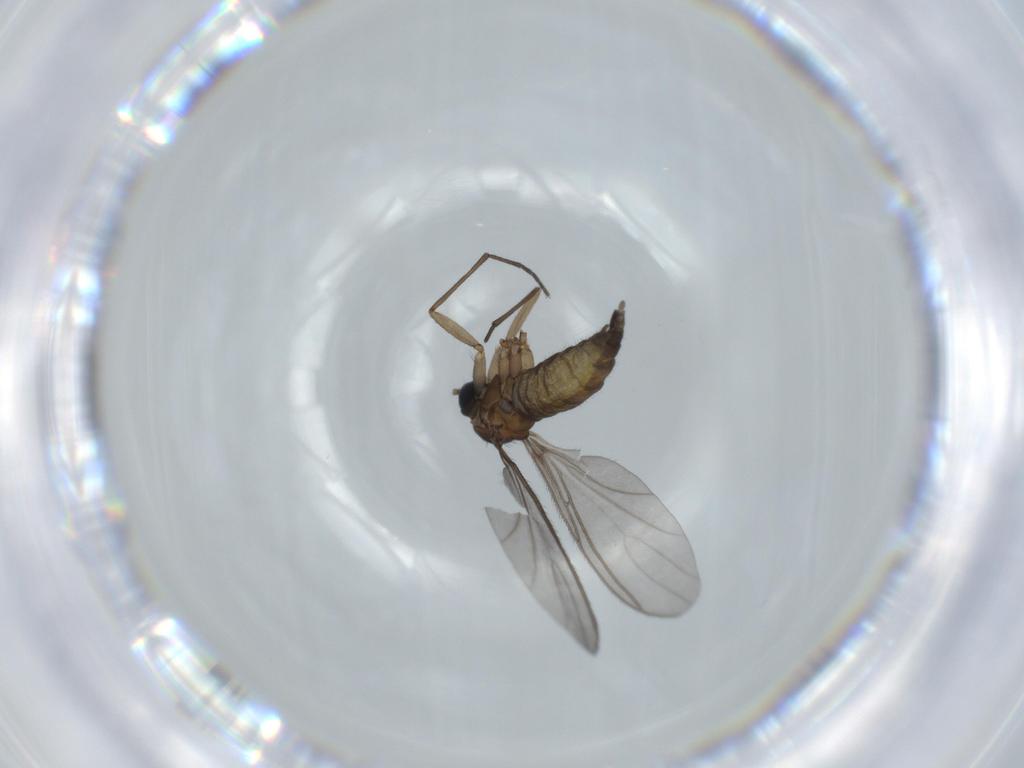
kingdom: Animalia
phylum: Arthropoda
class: Insecta
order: Diptera
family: Sciaridae
